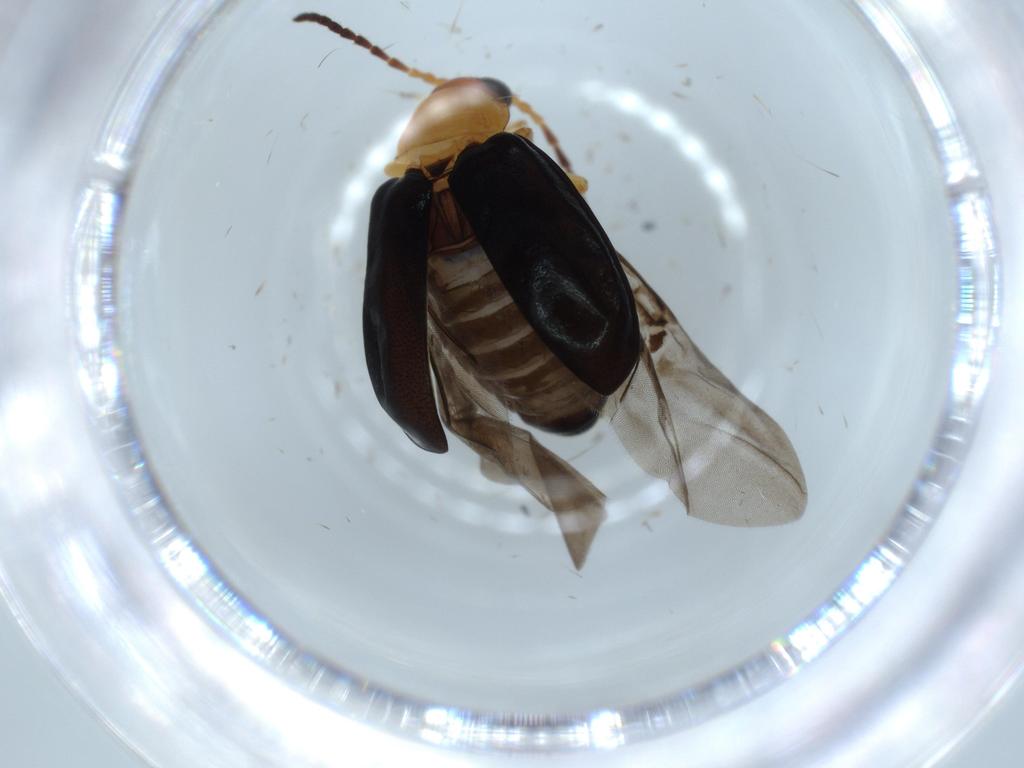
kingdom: Animalia
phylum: Arthropoda
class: Insecta
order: Coleoptera
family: Chrysomelidae
